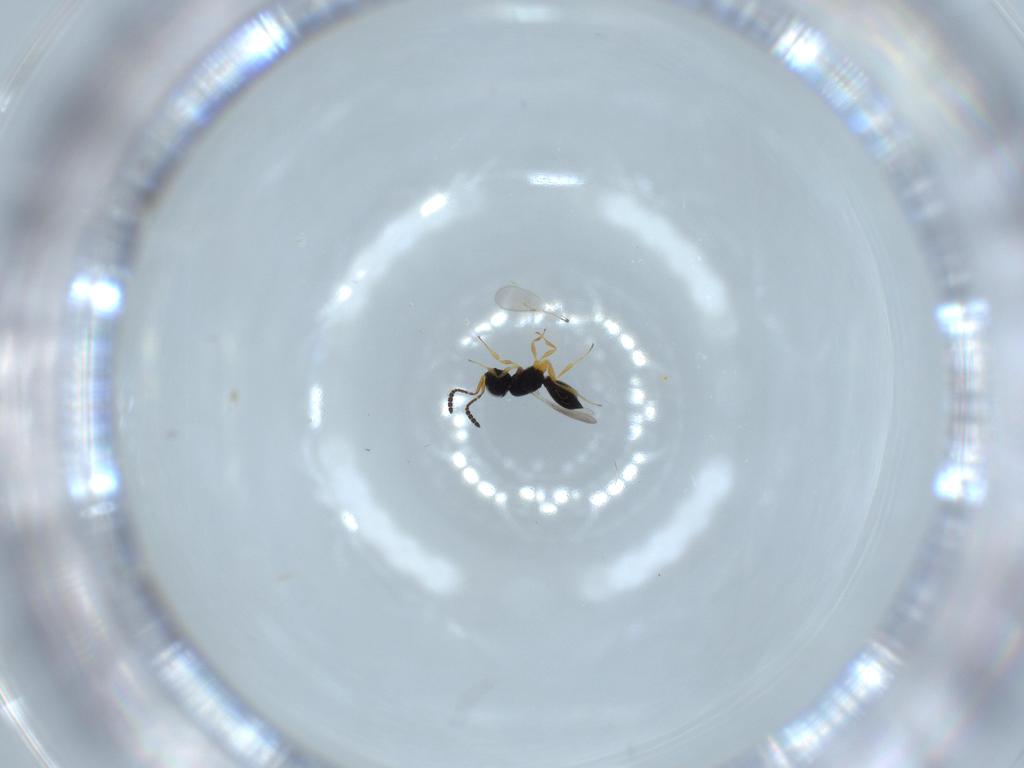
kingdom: Animalia
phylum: Arthropoda
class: Insecta
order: Hymenoptera
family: Scelionidae
